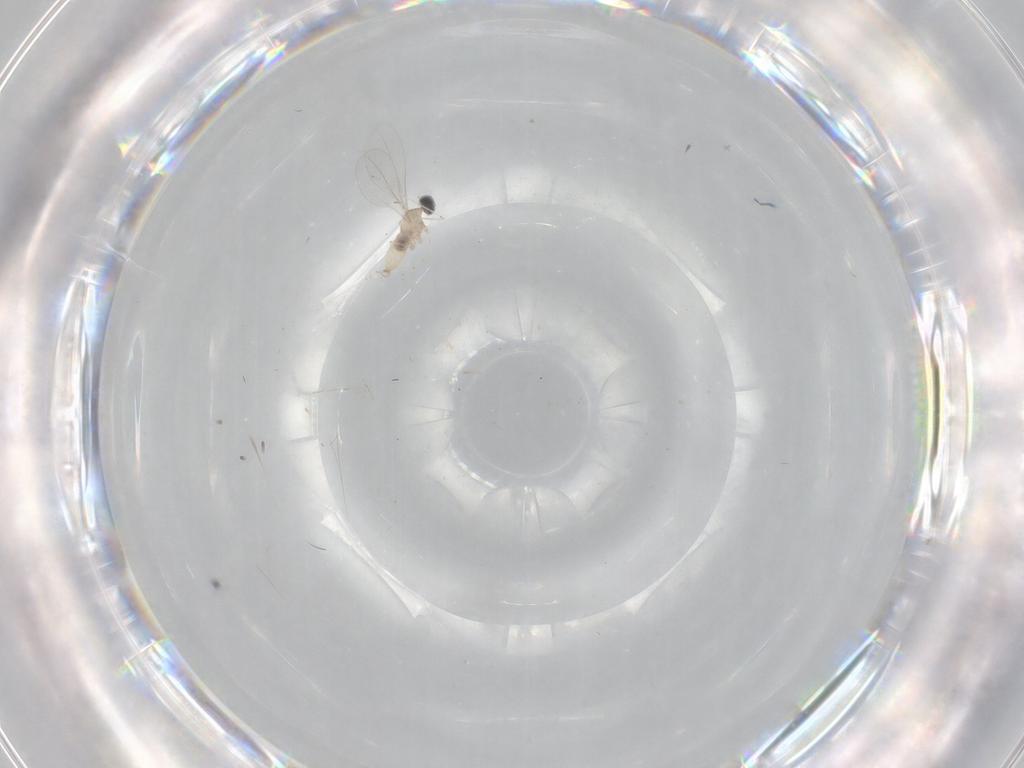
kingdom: Animalia
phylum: Arthropoda
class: Insecta
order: Diptera
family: Cecidomyiidae
